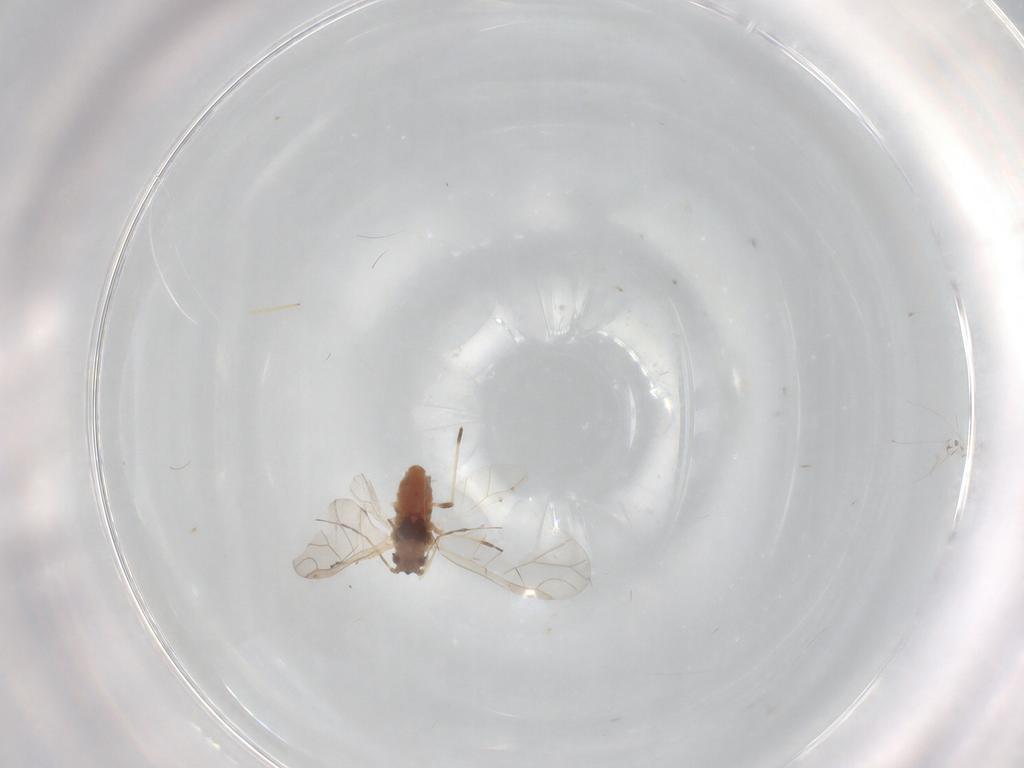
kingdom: Animalia
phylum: Arthropoda
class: Insecta
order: Hemiptera
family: Aphididae
